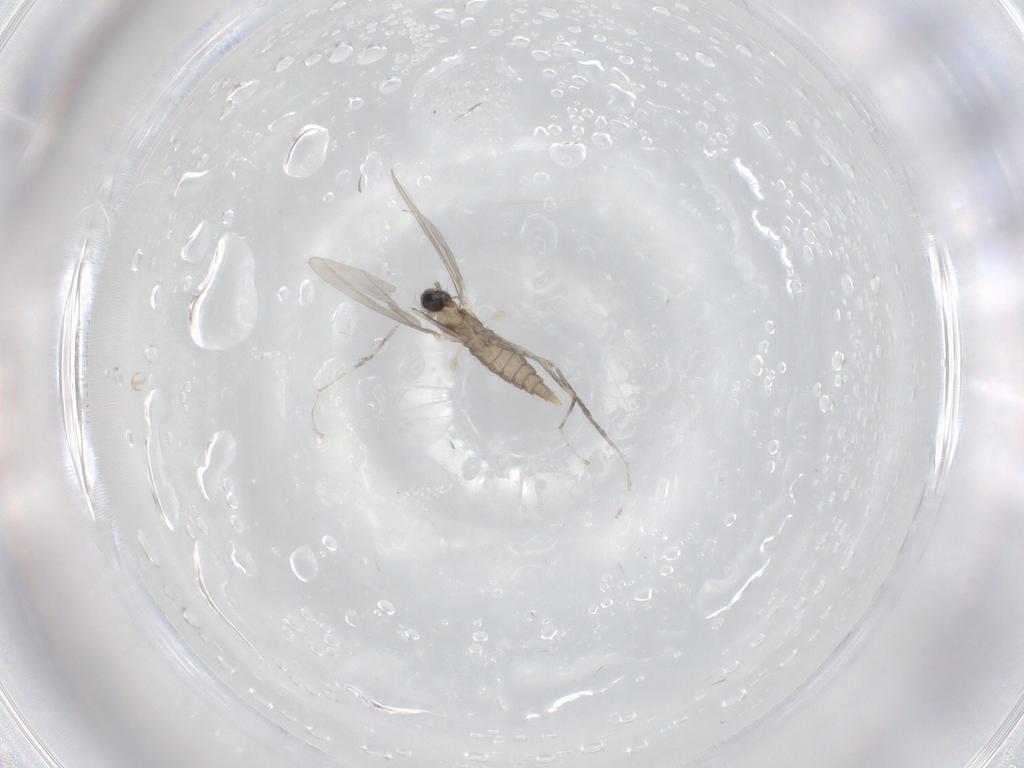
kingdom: Animalia
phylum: Arthropoda
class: Insecta
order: Diptera
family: Cecidomyiidae
